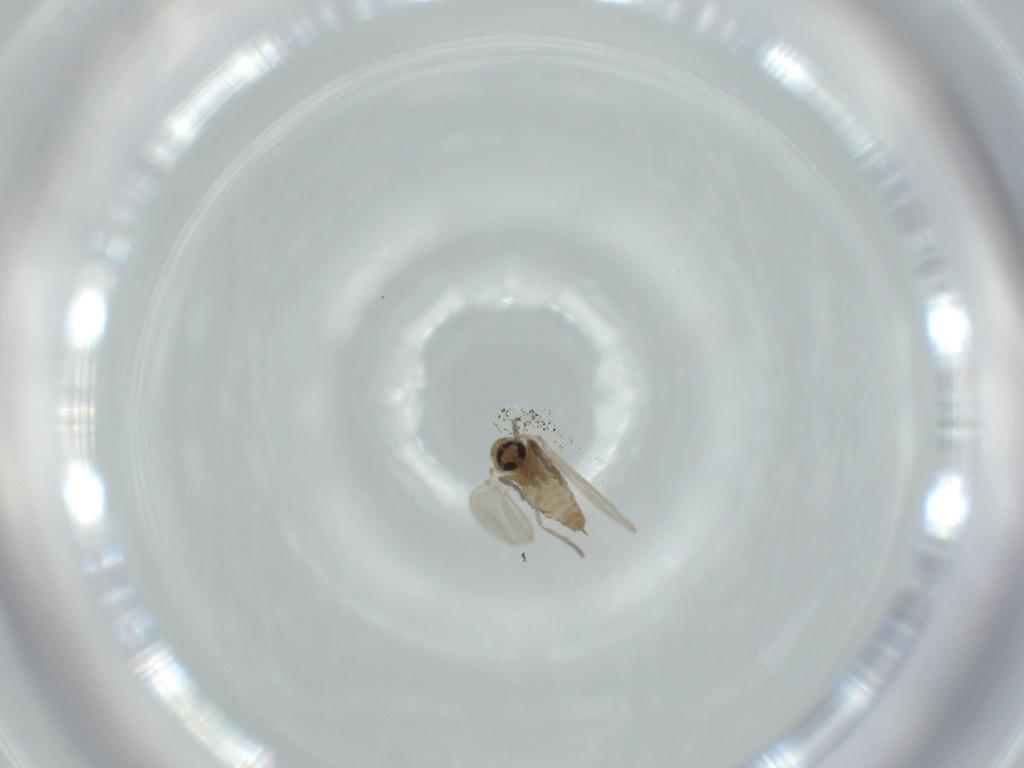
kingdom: Animalia
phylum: Arthropoda
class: Insecta
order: Diptera
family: Psychodidae
